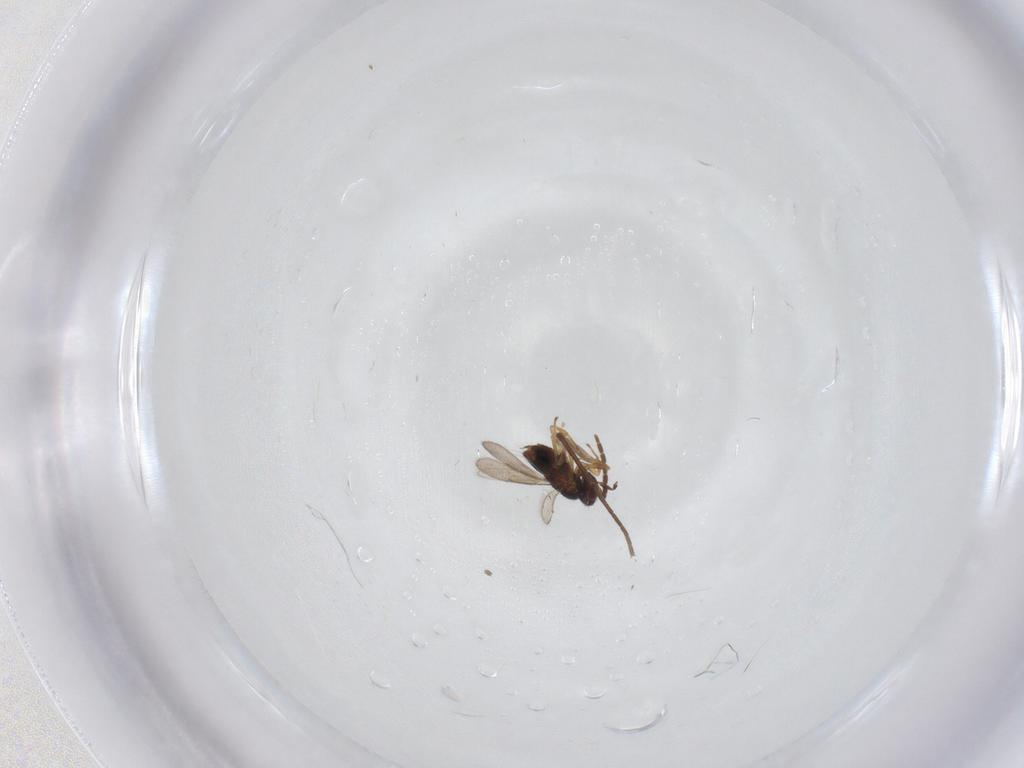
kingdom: Animalia
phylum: Arthropoda
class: Insecta
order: Hymenoptera
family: Aphelinidae
